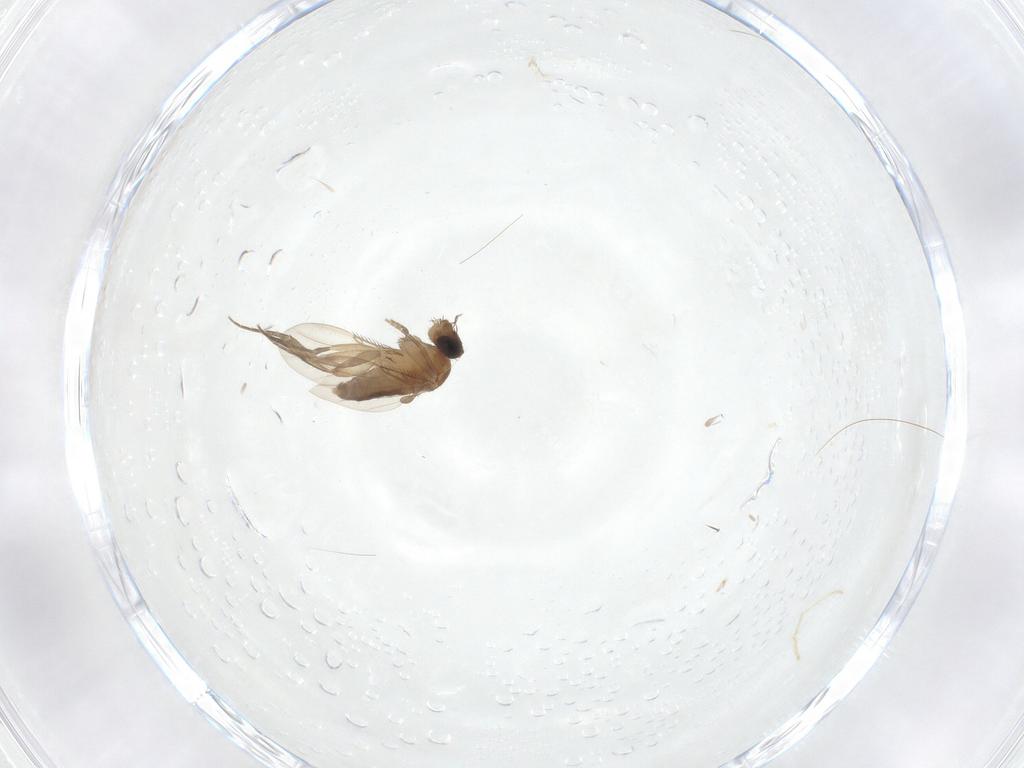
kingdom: Animalia
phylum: Arthropoda
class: Insecta
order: Diptera
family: Phoridae
